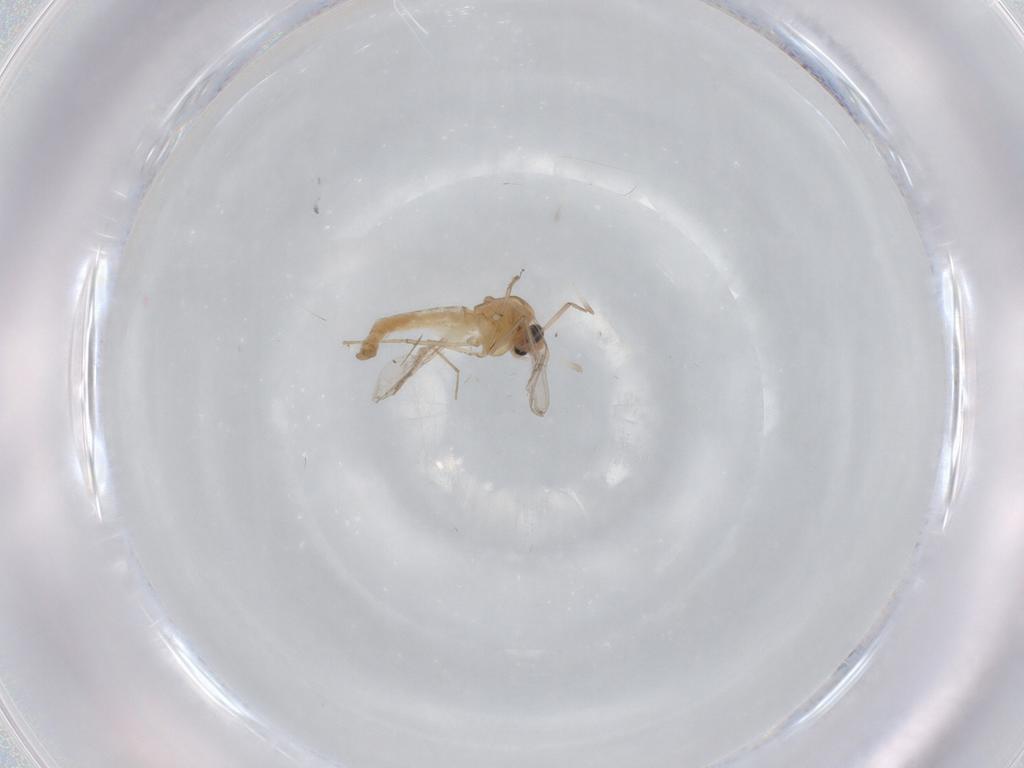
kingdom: Animalia
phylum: Arthropoda
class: Insecta
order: Diptera
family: Chironomidae
